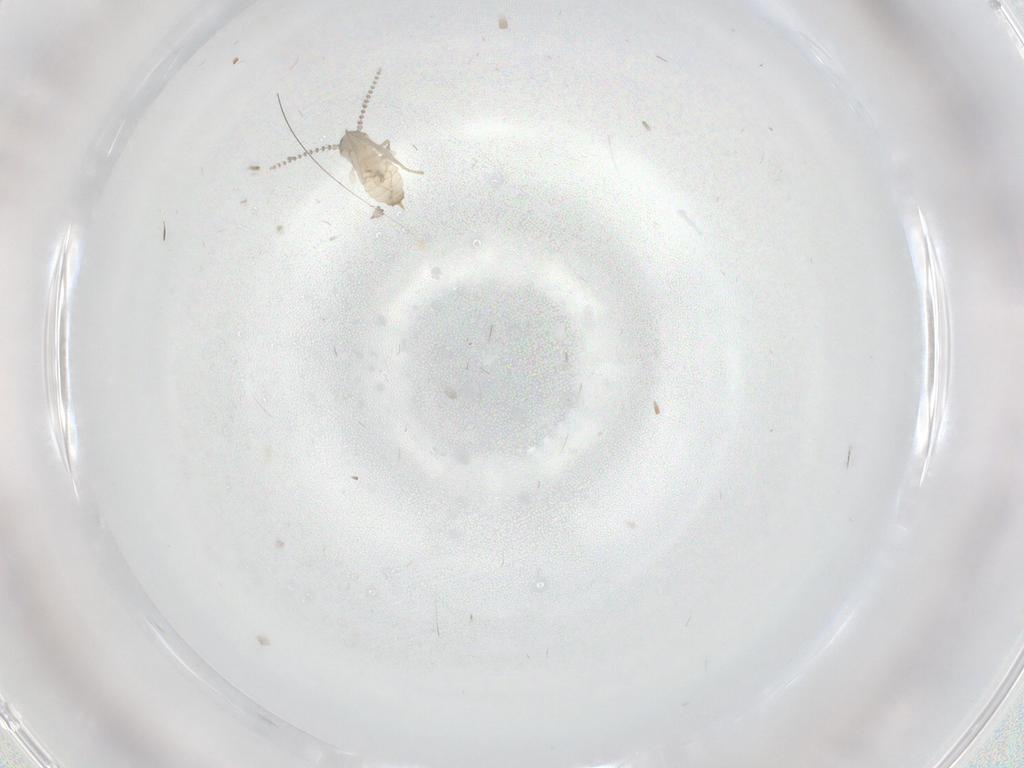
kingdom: Animalia
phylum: Arthropoda
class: Insecta
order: Diptera
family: Psychodidae
